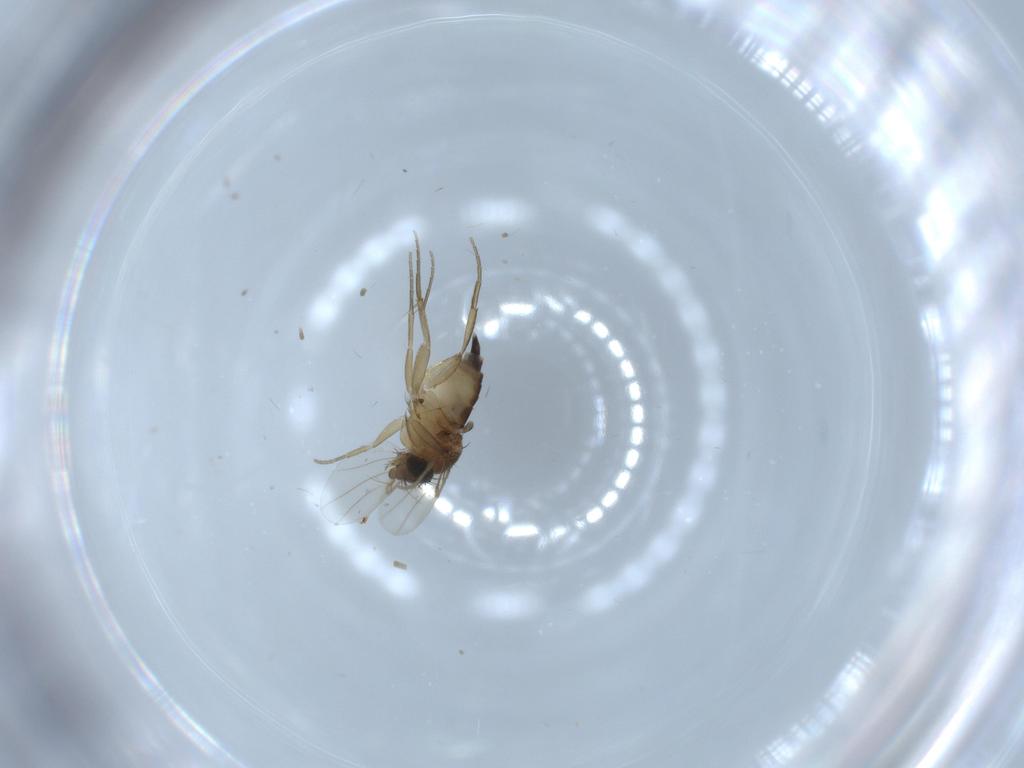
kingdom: Animalia
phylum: Arthropoda
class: Insecta
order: Diptera
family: Phoridae
